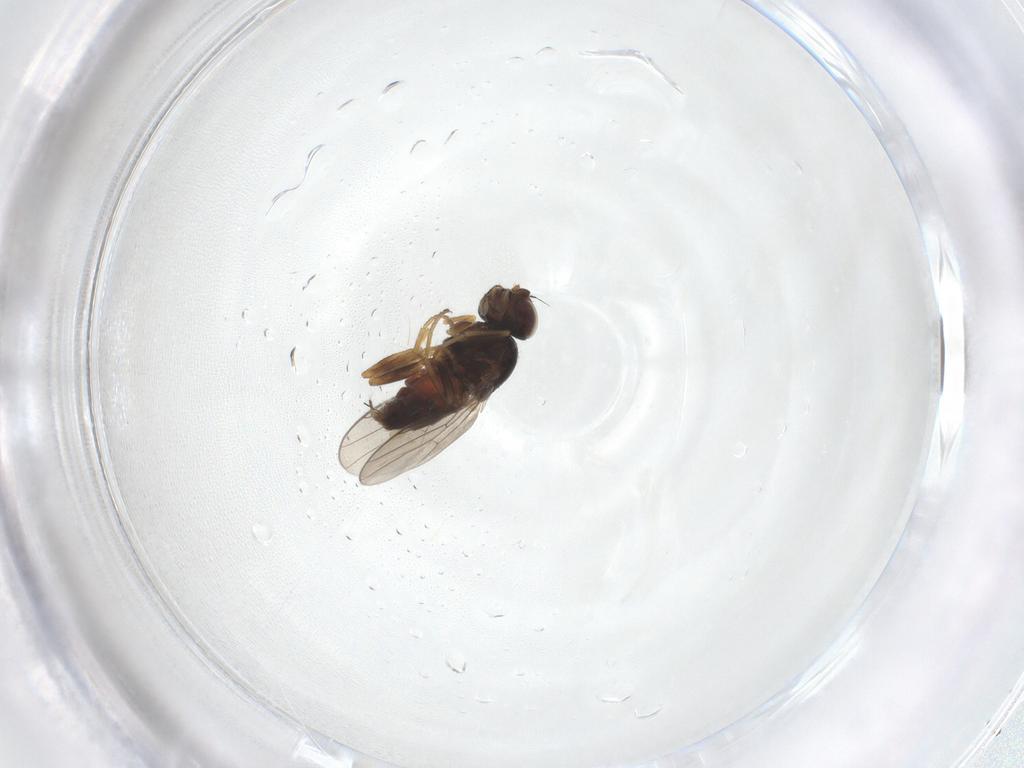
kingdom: Animalia
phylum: Arthropoda
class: Insecta
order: Diptera
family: Chloropidae
